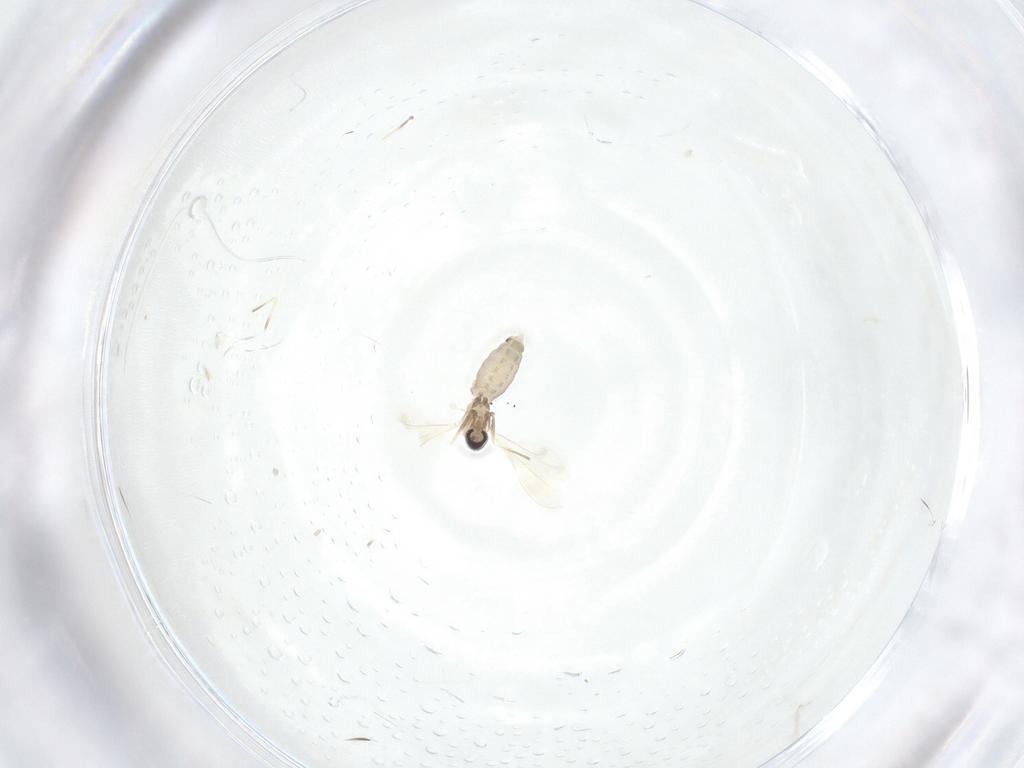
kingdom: Animalia
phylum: Arthropoda
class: Insecta
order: Diptera
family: Cecidomyiidae
